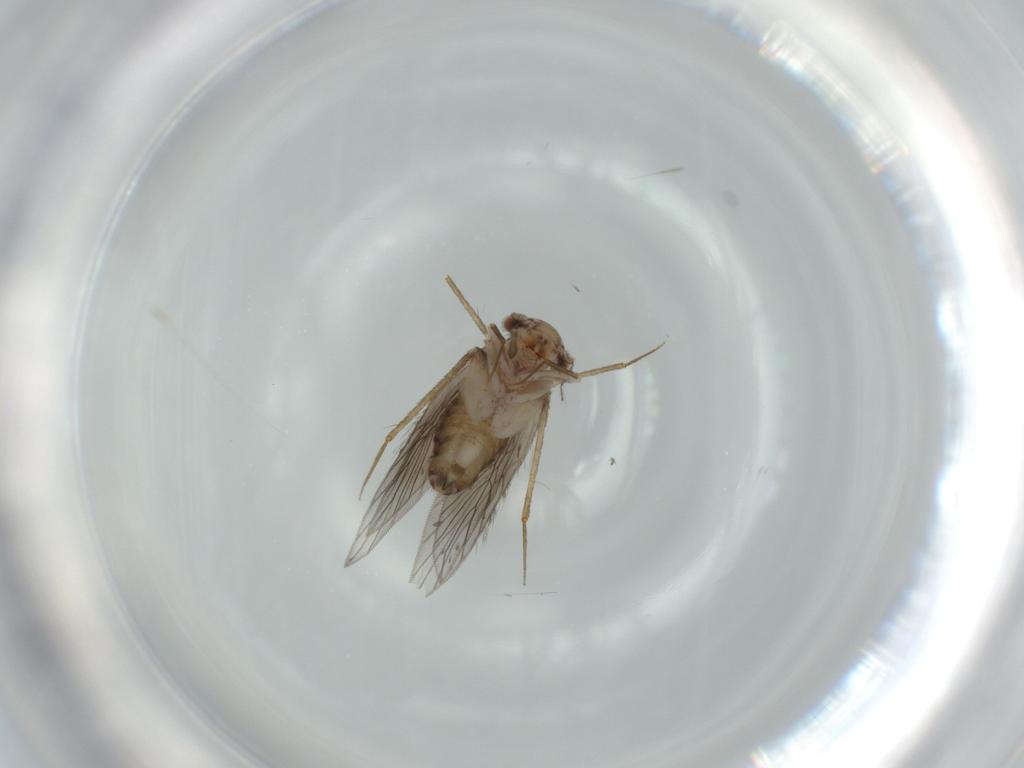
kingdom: Animalia
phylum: Arthropoda
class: Insecta
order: Psocodea
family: Lepidopsocidae
